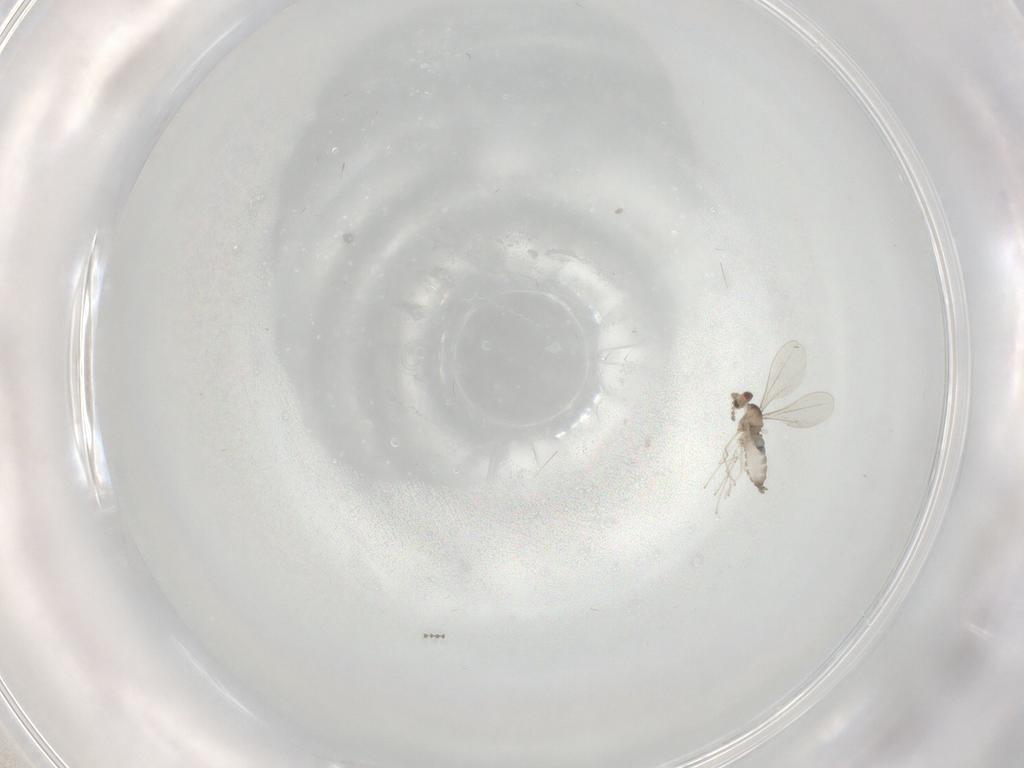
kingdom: Animalia
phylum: Arthropoda
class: Insecta
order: Diptera
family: Cecidomyiidae
